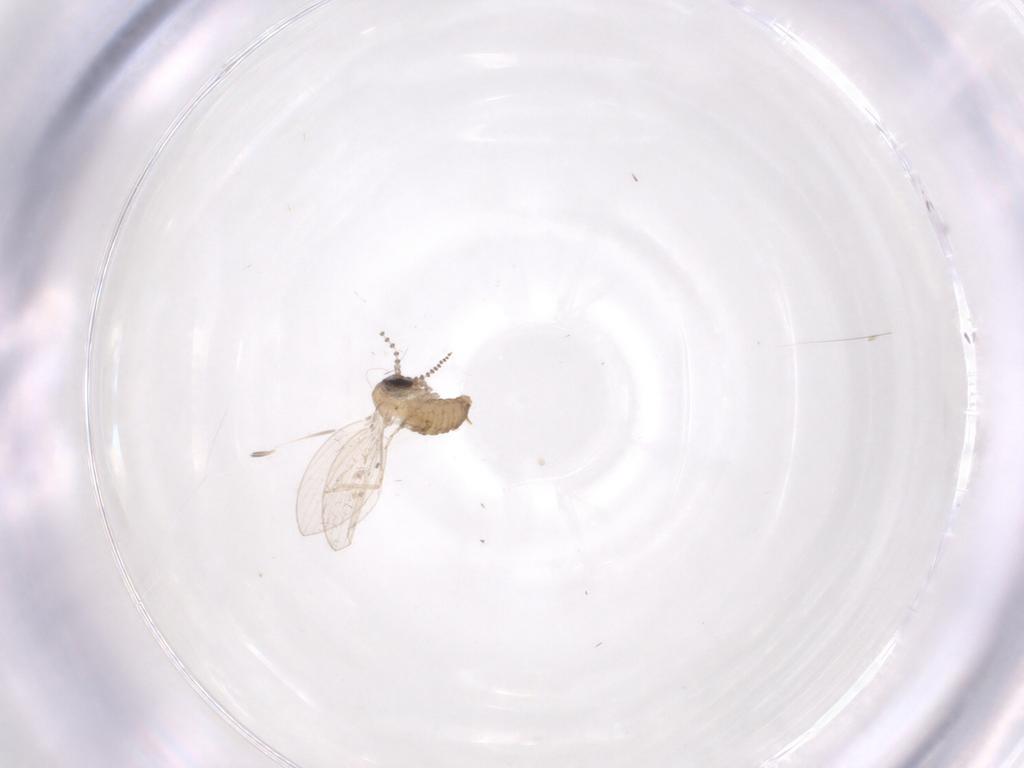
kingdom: Animalia
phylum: Arthropoda
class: Insecta
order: Diptera
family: Psychodidae
